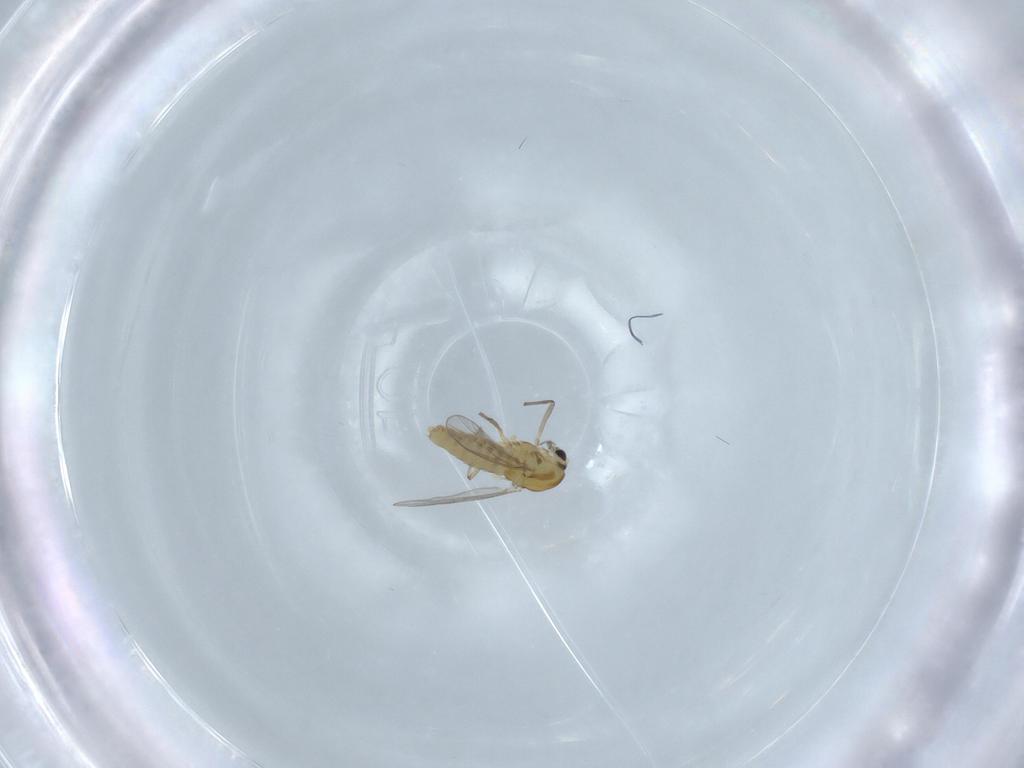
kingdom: Animalia
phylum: Arthropoda
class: Insecta
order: Diptera
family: Chironomidae
